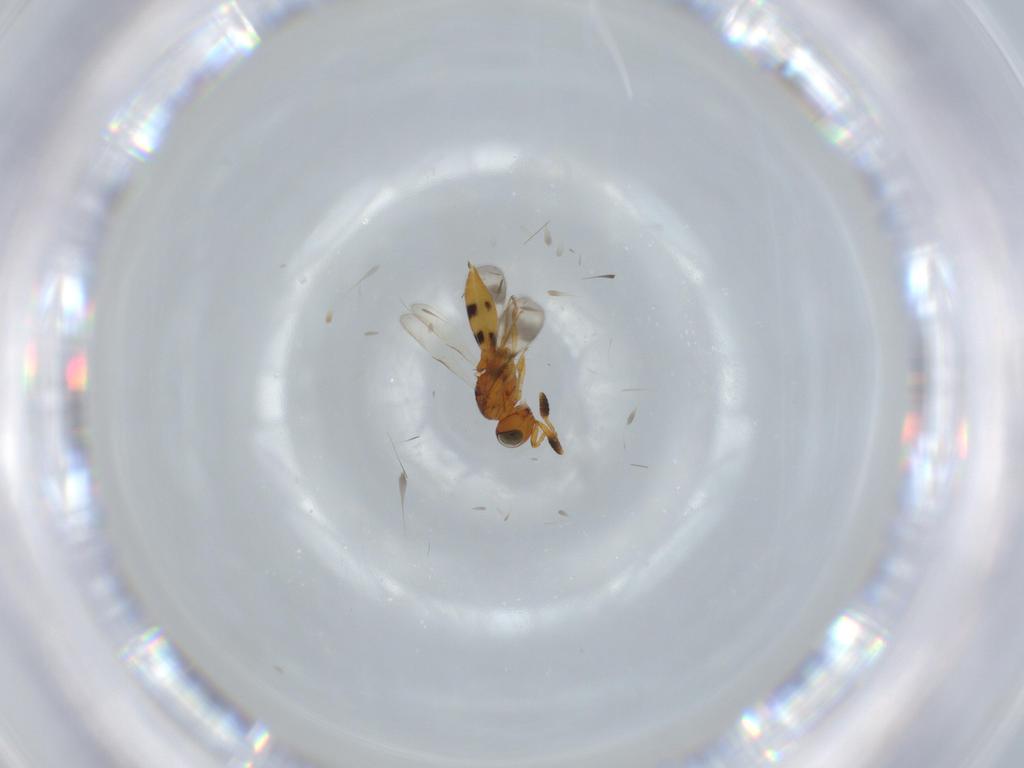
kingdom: Animalia
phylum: Arthropoda
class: Insecta
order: Hymenoptera
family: Scelionidae
